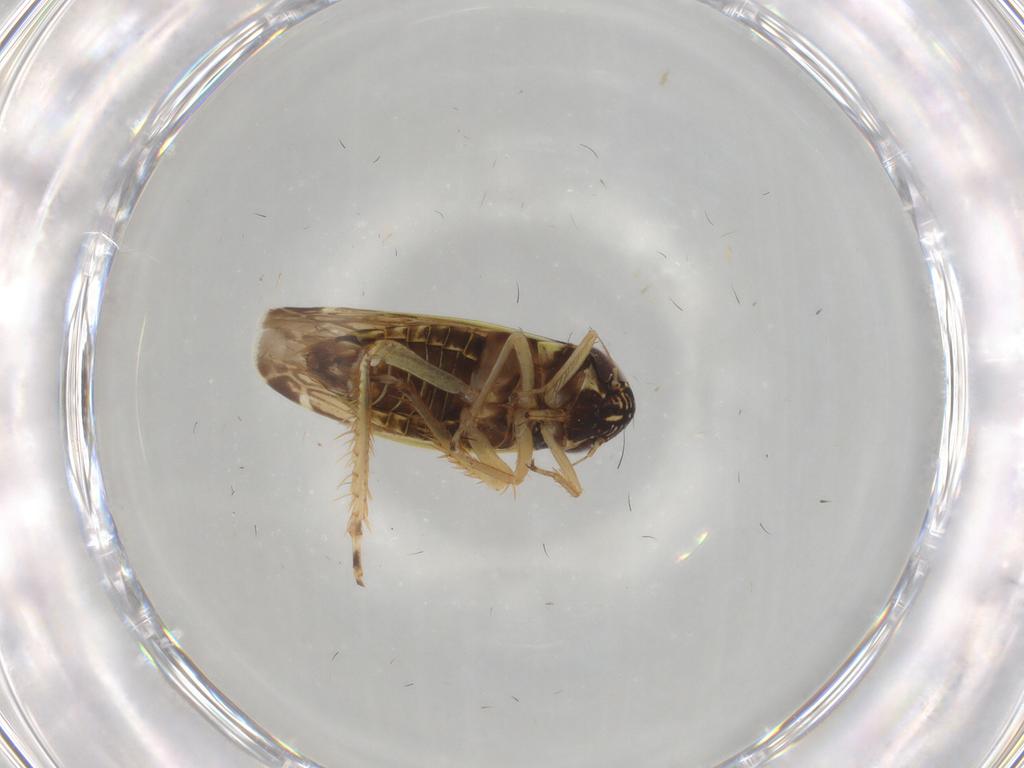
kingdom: Animalia
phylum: Arthropoda
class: Insecta
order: Hemiptera
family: Cicadellidae
